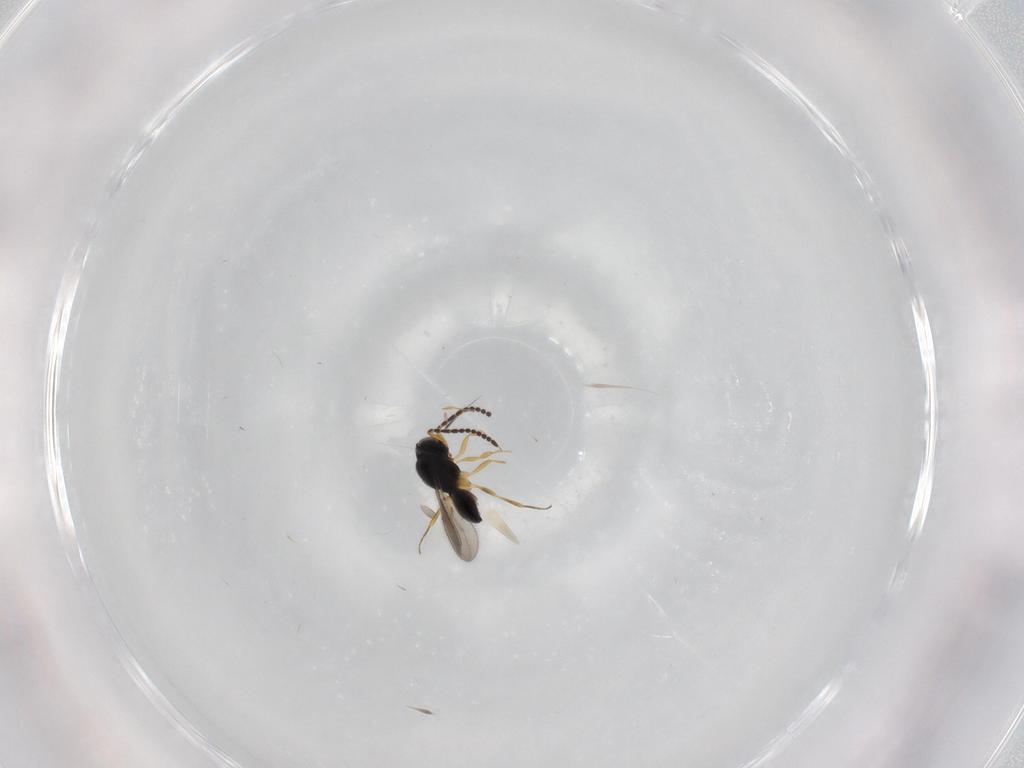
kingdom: Animalia
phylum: Arthropoda
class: Insecta
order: Hymenoptera
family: Scelionidae
